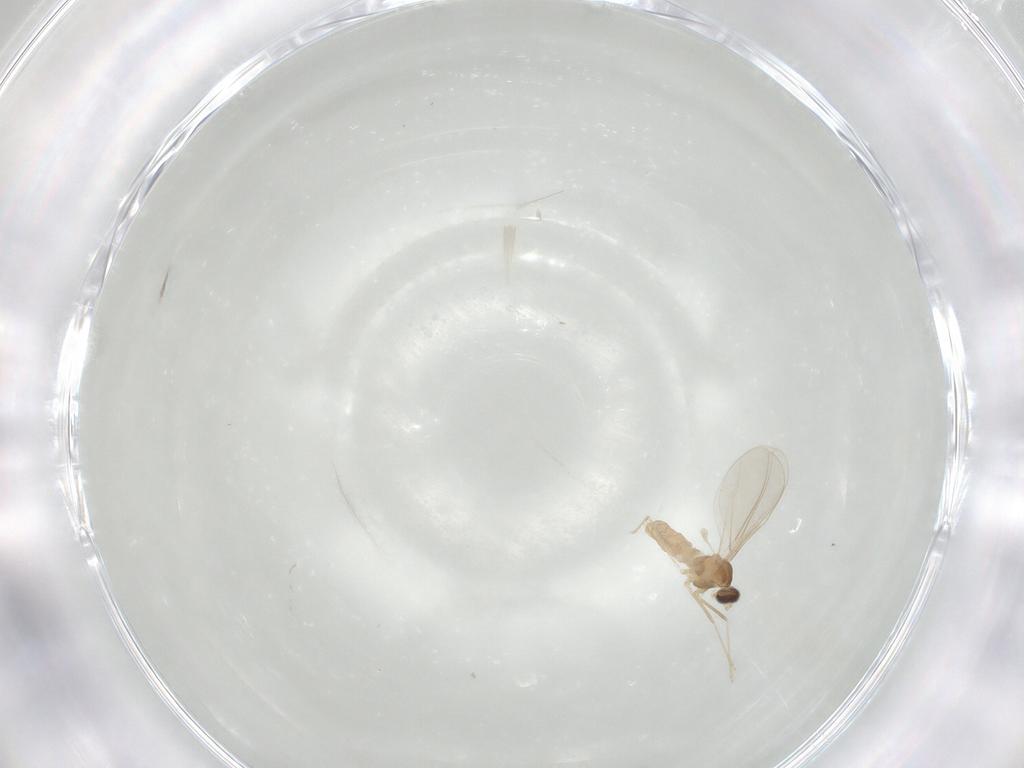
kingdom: Animalia
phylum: Arthropoda
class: Insecta
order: Diptera
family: Cecidomyiidae
